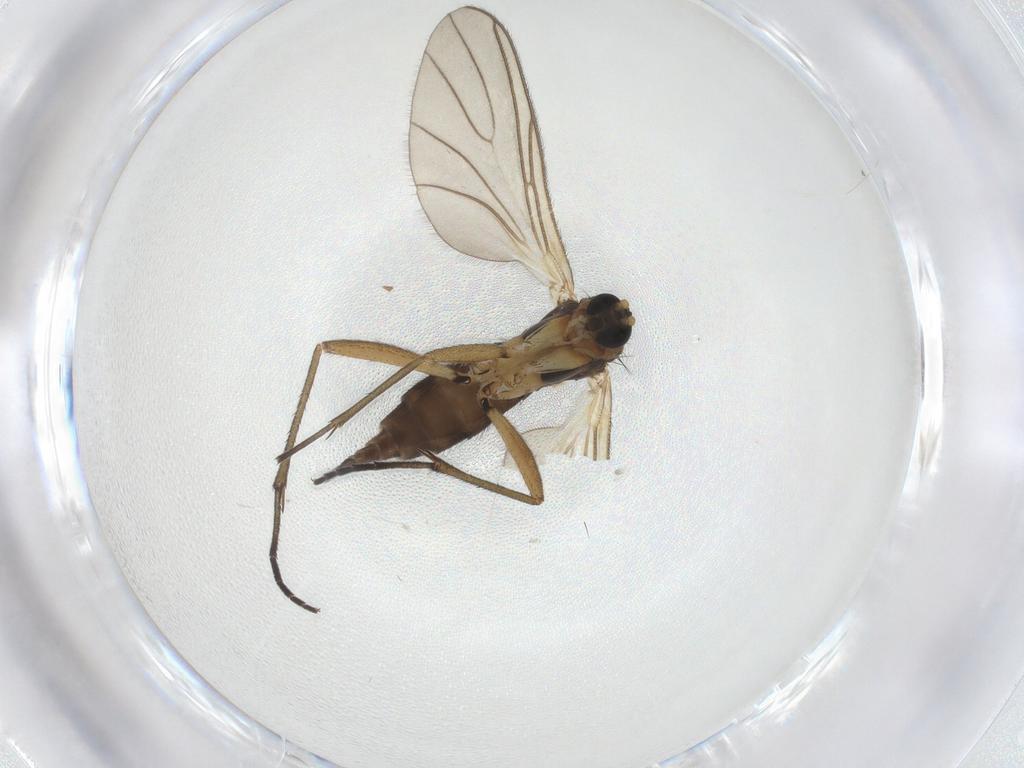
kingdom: Animalia
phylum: Arthropoda
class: Insecta
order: Diptera
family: Sciaridae
